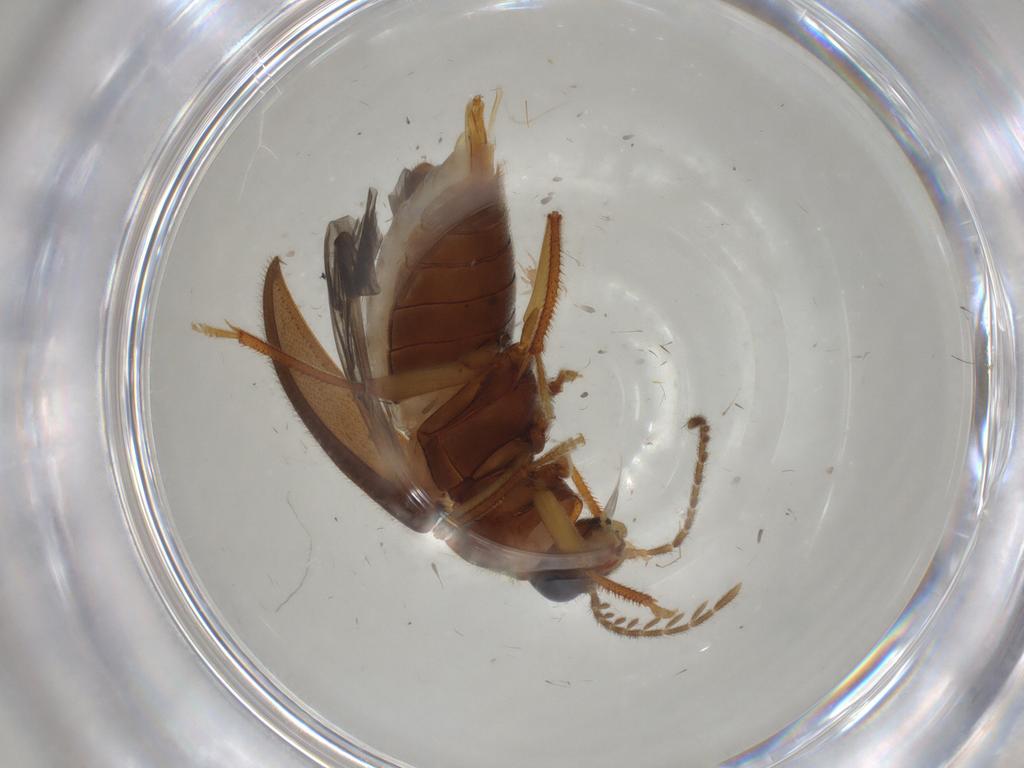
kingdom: Animalia
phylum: Arthropoda
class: Insecta
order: Coleoptera
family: Ptilodactylidae
